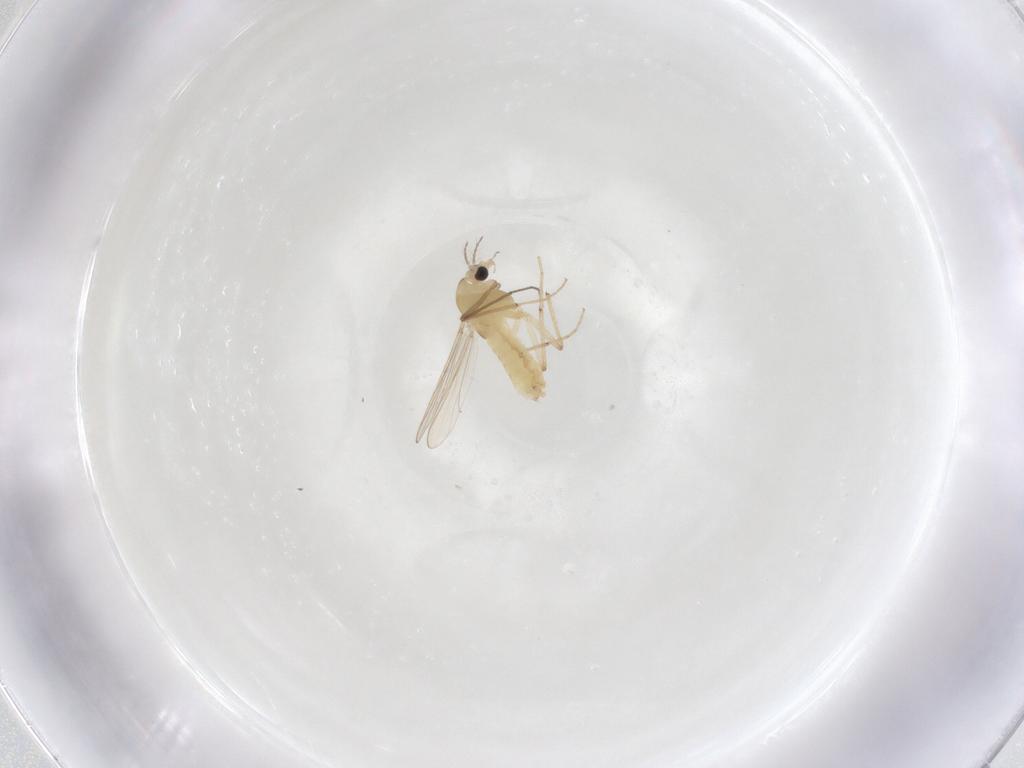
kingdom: Animalia
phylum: Arthropoda
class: Insecta
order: Diptera
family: Chironomidae
